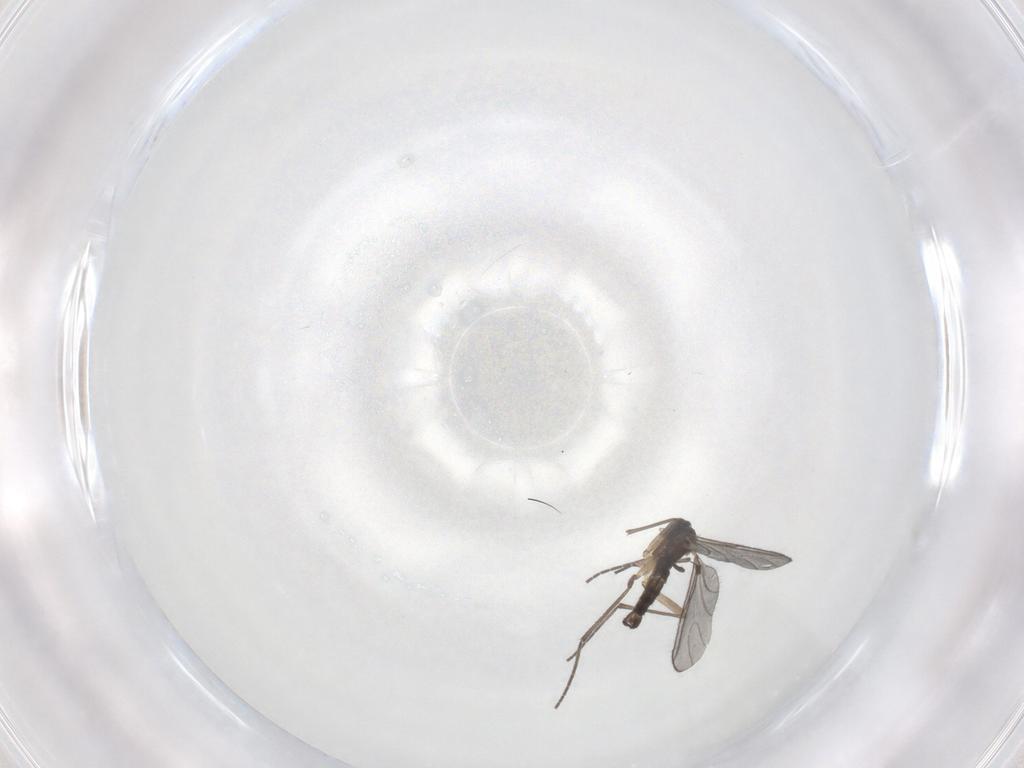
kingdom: Animalia
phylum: Arthropoda
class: Insecta
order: Diptera
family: Sciaridae
